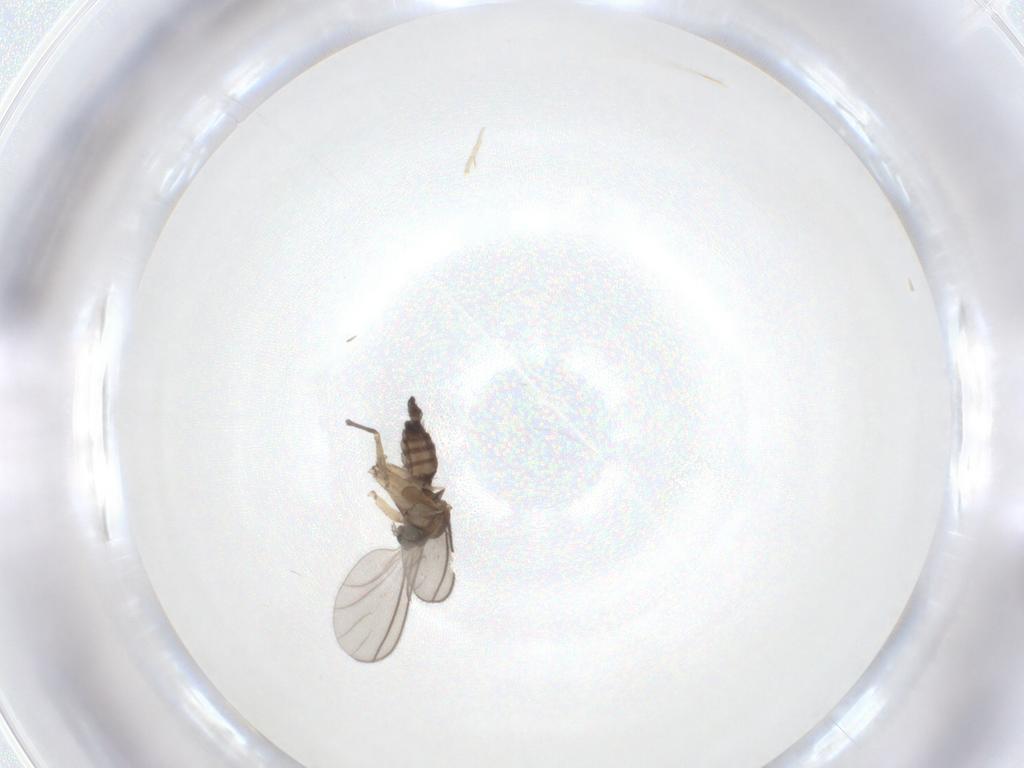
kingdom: Animalia
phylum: Arthropoda
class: Insecta
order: Diptera
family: Sciaridae
